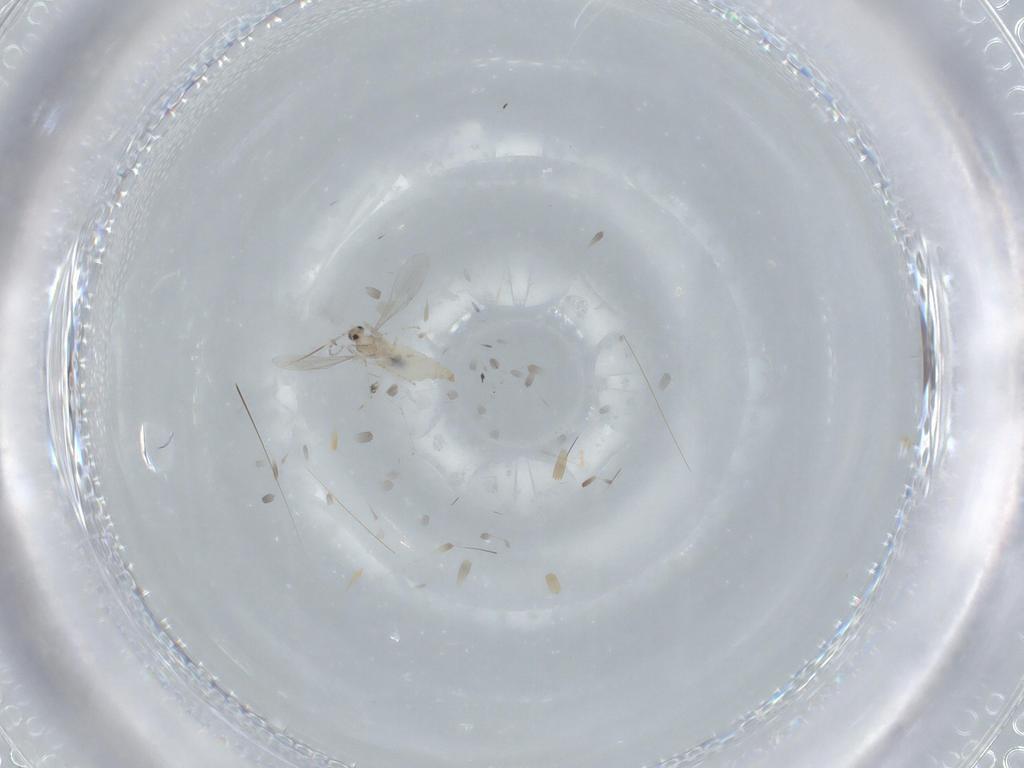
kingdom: Animalia
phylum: Arthropoda
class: Insecta
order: Diptera
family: Cecidomyiidae
